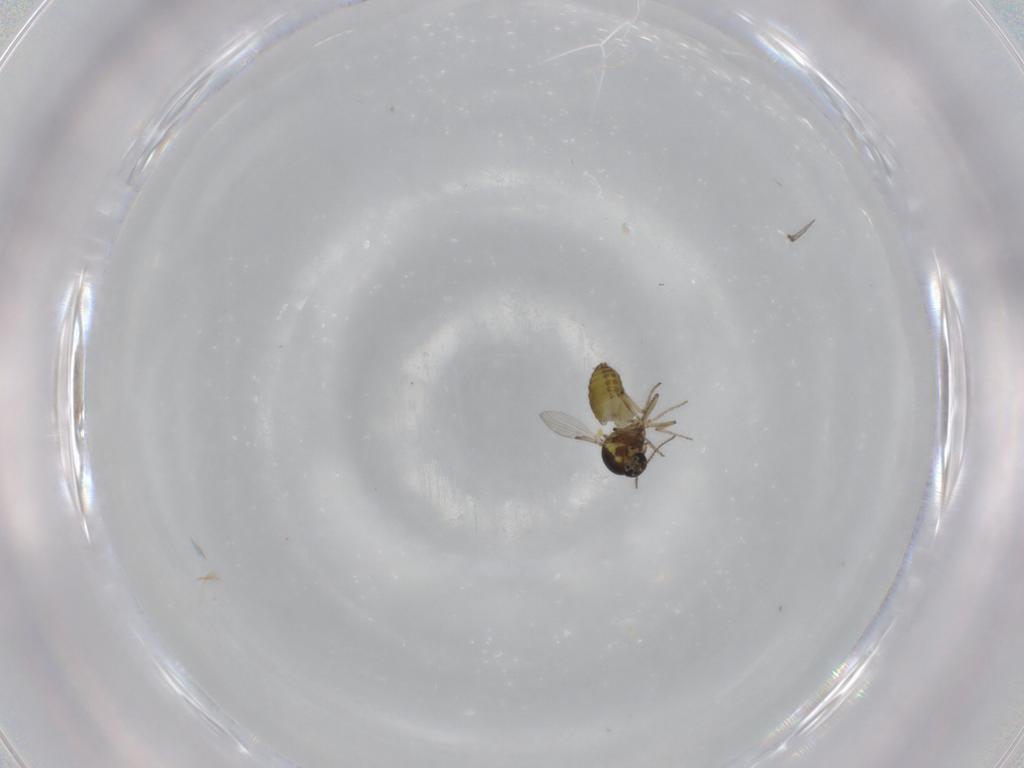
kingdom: Animalia
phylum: Arthropoda
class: Insecta
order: Diptera
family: Ceratopogonidae
